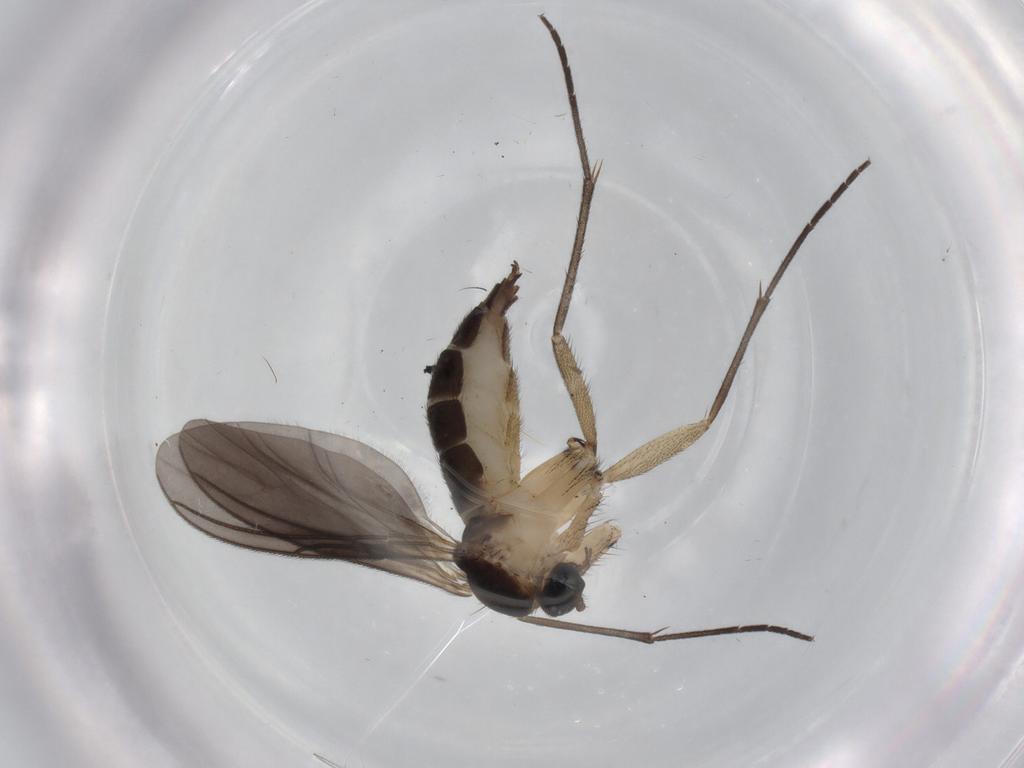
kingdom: Animalia
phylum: Arthropoda
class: Insecta
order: Diptera
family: Sciaridae
